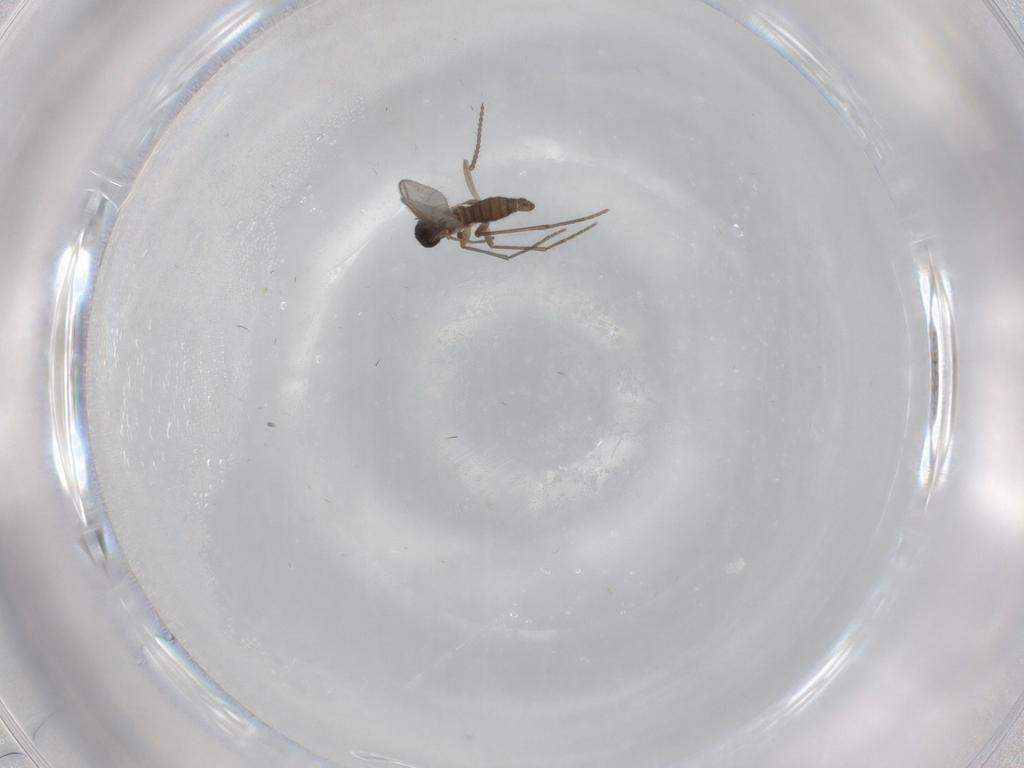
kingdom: Animalia
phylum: Arthropoda
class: Insecta
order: Diptera
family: Sciaridae
